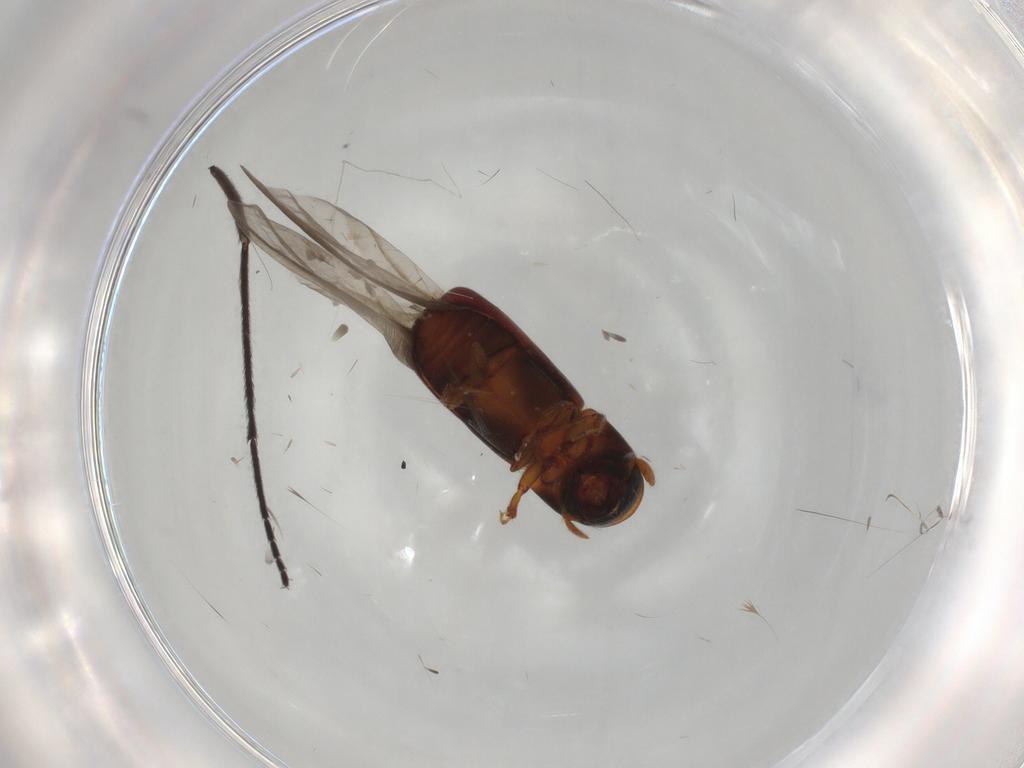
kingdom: Animalia
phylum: Arthropoda
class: Insecta
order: Coleoptera
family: Curculionidae
